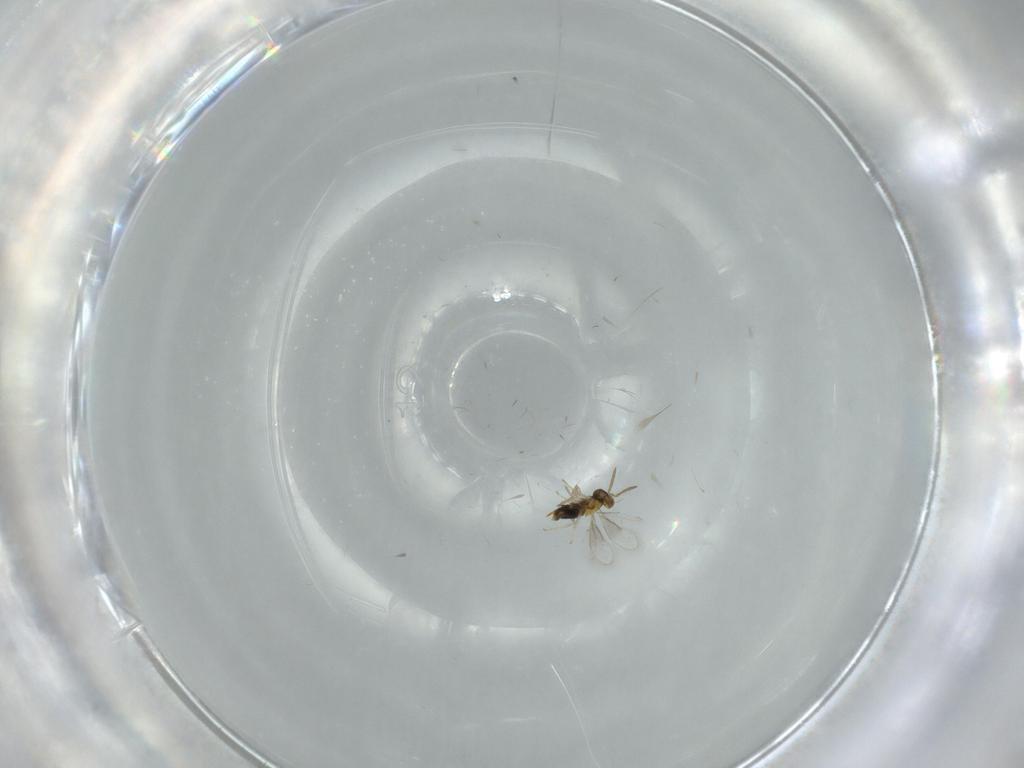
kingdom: Animalia
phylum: Arthropoda
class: Insecta
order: Hymenoptera
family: Aphelinidae
